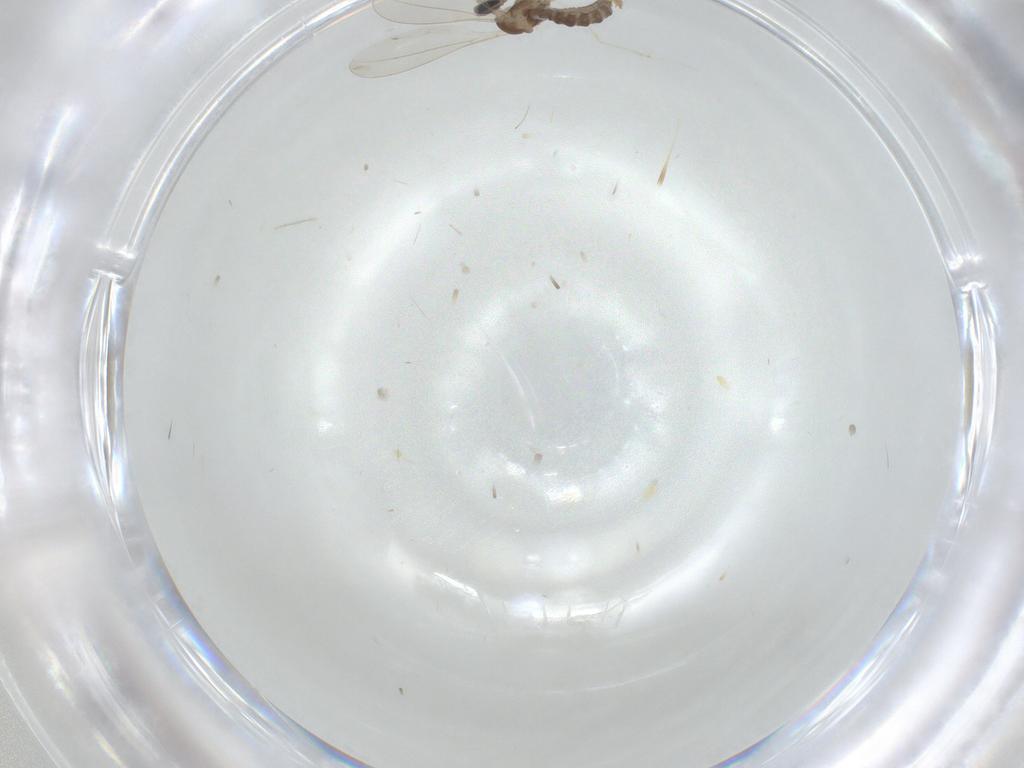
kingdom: Animalia
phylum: Arthropoda
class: Insecta
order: Diptera
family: Cecidomyiidae
